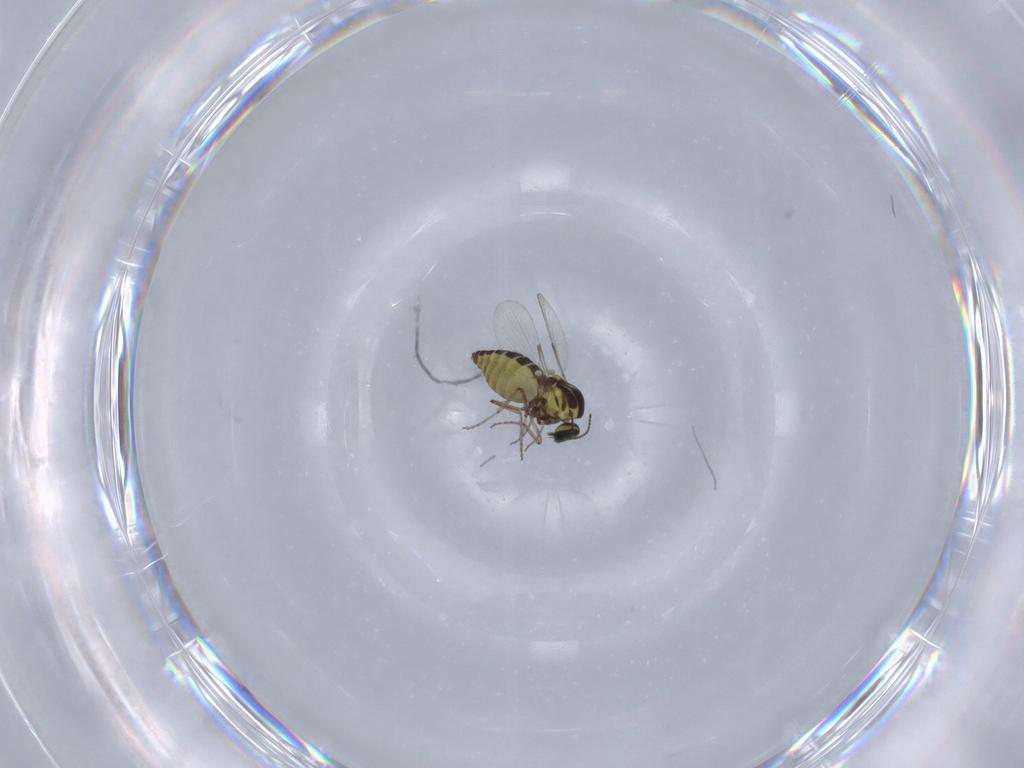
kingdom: Animalia
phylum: Arthropoda
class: Insecta
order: Diptera
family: Ceratopogonidae
